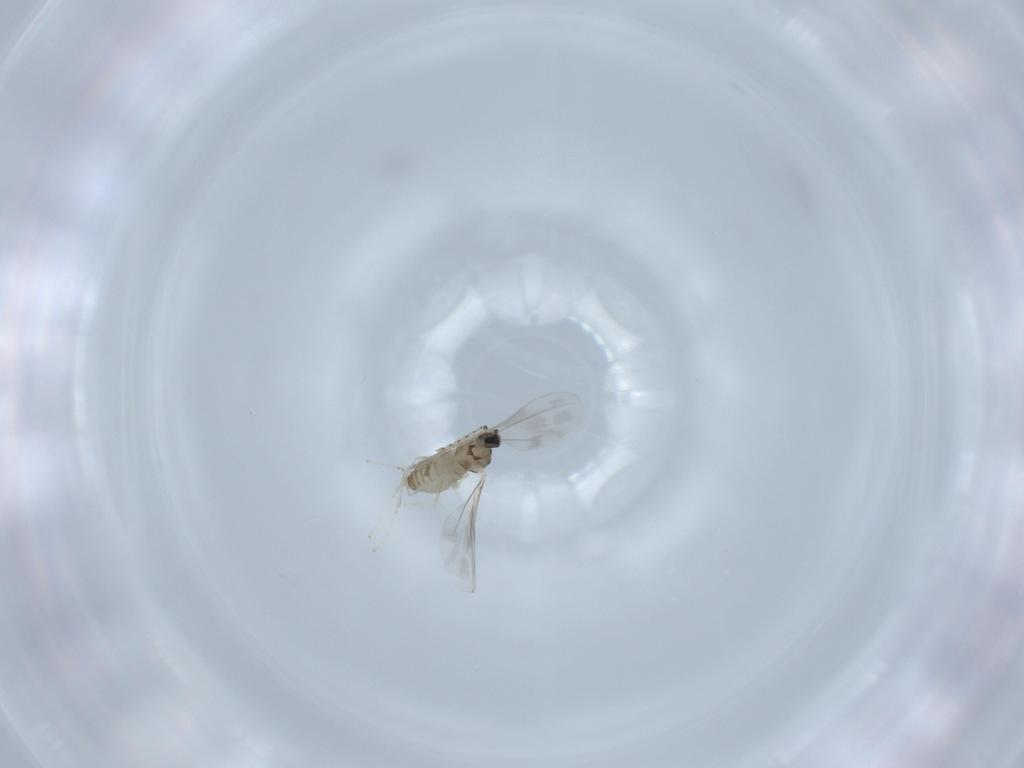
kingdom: Animalia
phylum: Arthropoda
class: Insecta
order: Diptera
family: Cecidomyiidae
